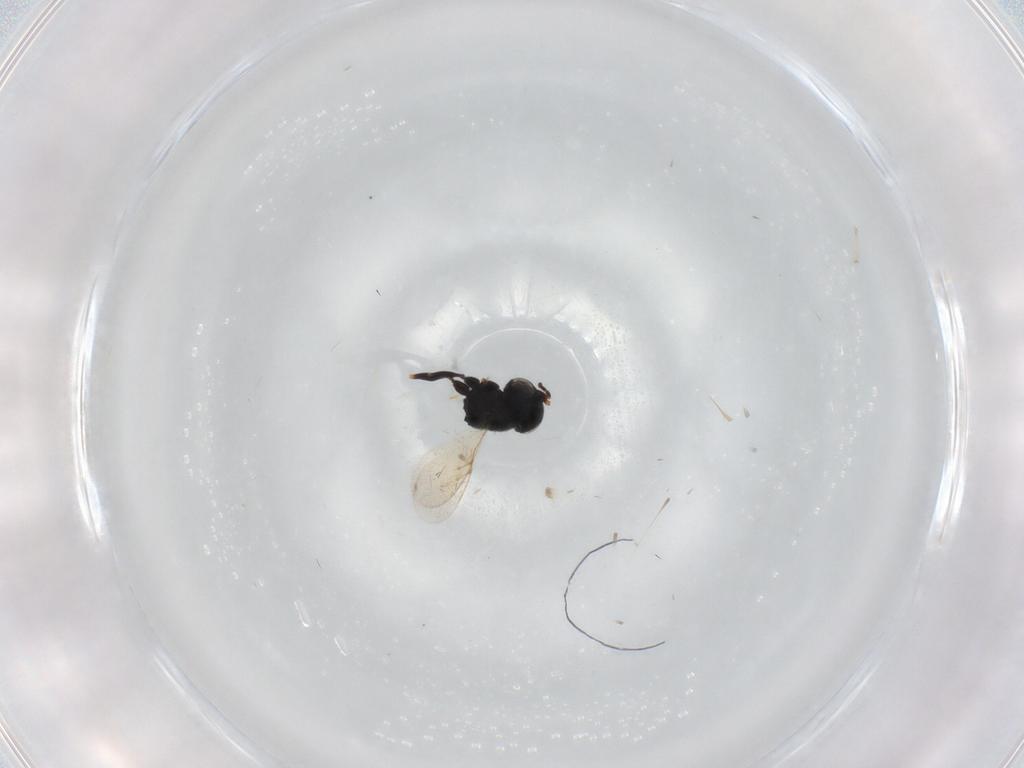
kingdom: Animalia
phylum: Arthropoda
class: Insecta
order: Hymenoptera
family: Scelionidae
